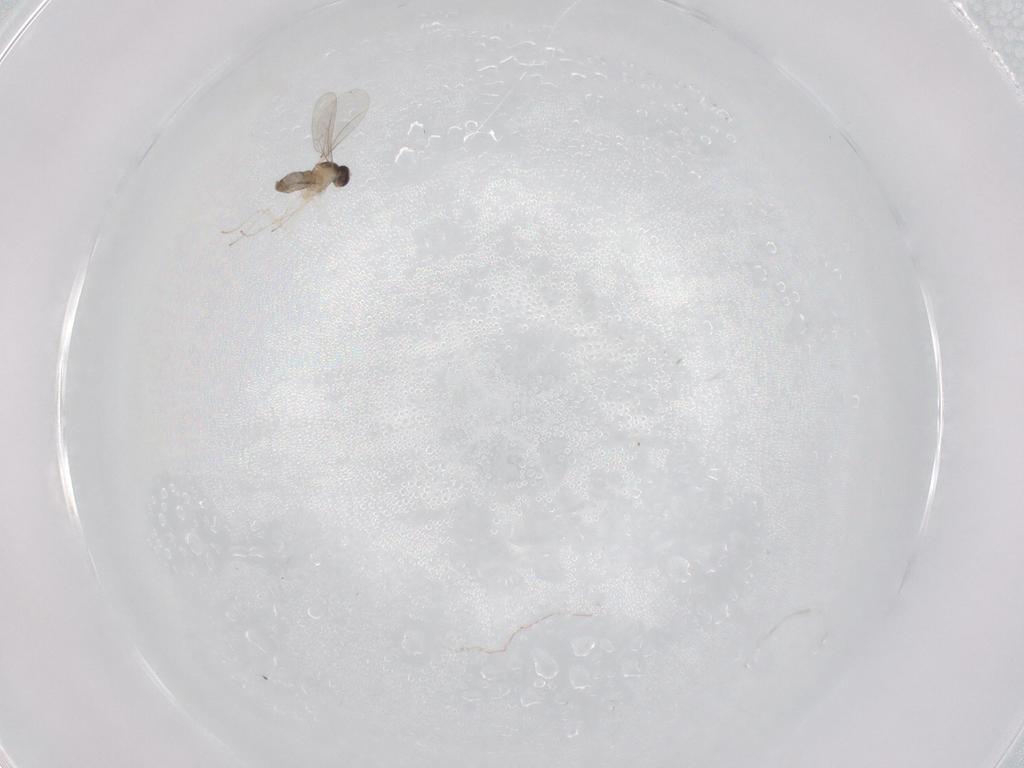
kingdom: Animalia
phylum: Arthropoda
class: Insecta
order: Diptera
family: Cecidomyiidae
